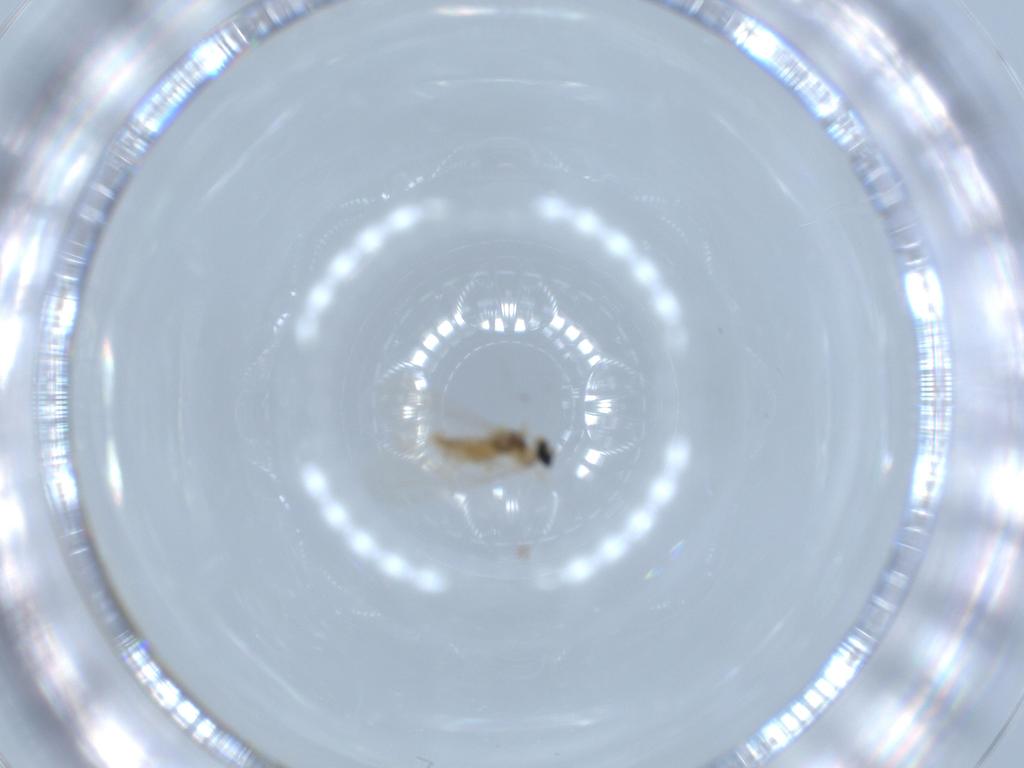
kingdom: Animalia
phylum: Arthropoda
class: Insecta
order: Diptera
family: Cecidomyiidae
